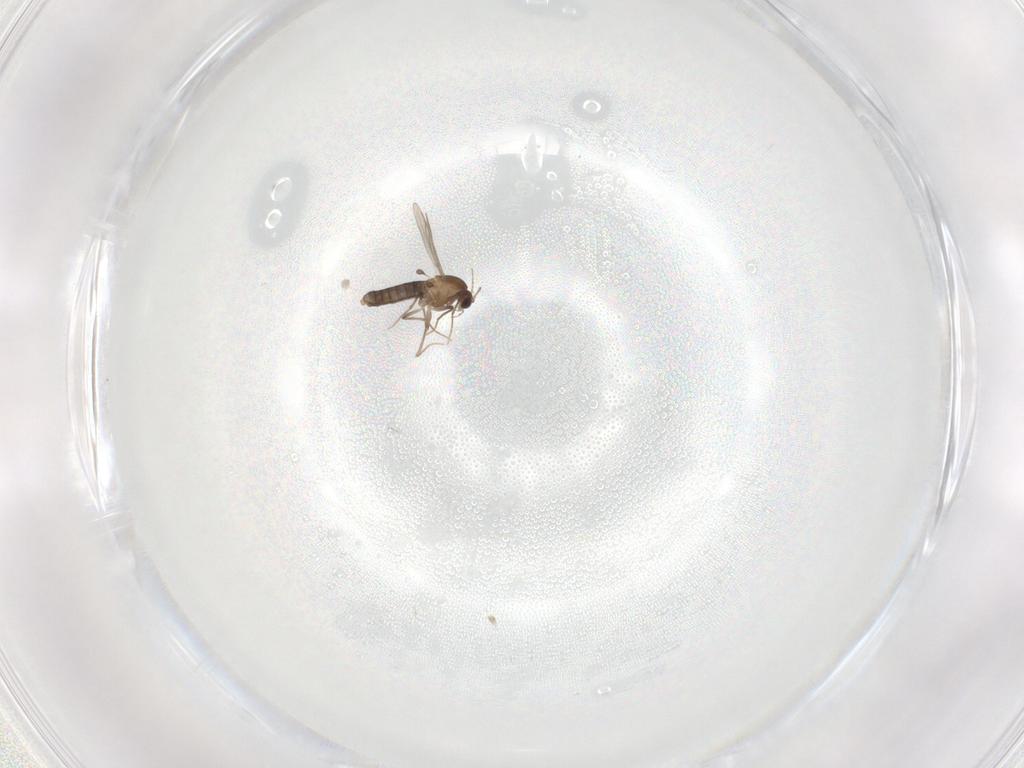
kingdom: Animalia
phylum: Arthropoda
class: Insecta
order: Diptera
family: Chironomidae
